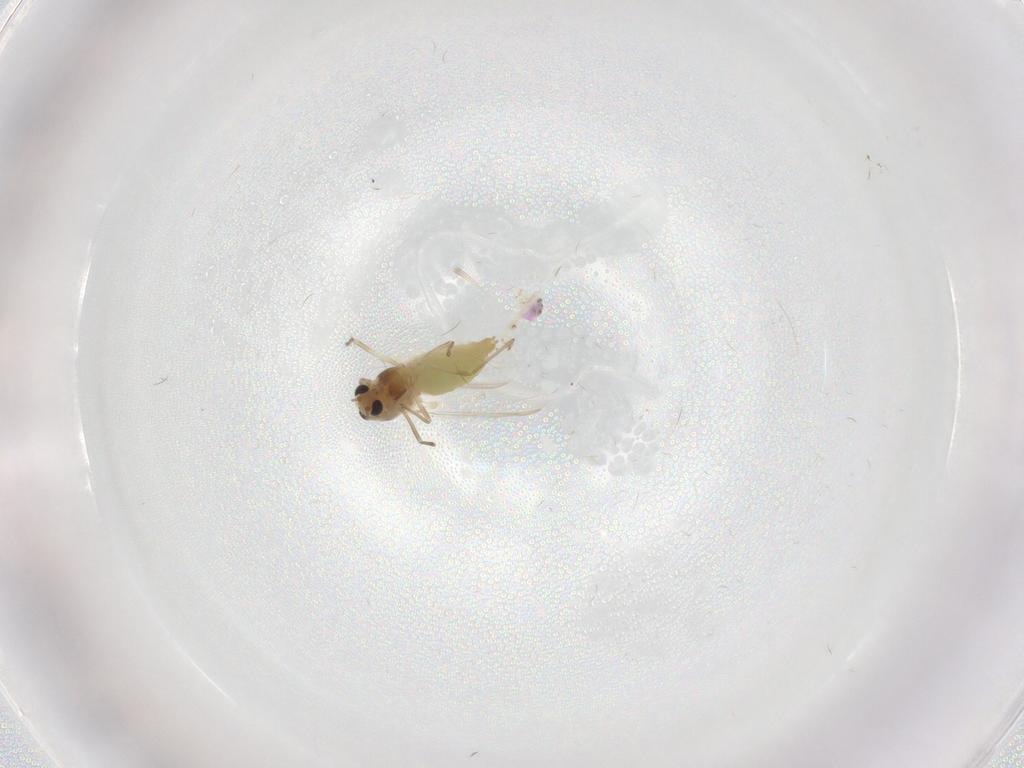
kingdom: Animalia
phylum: Arthropoda
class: Insecta
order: Diptera
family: Chironomidae
